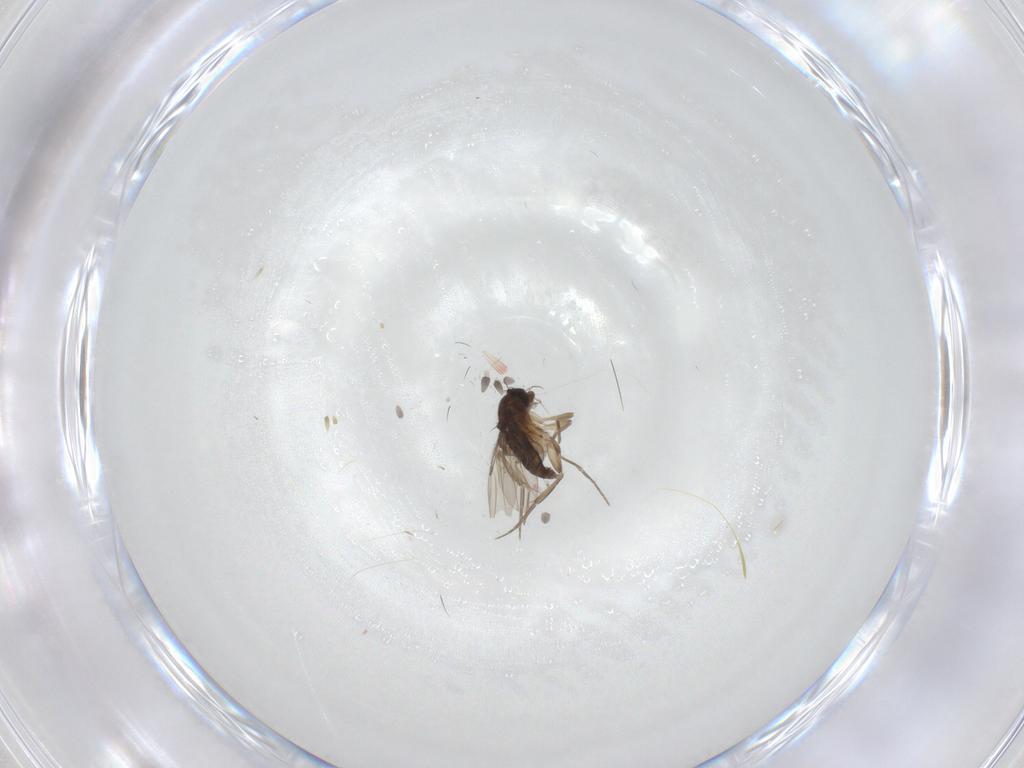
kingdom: Animalia
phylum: Arthropoda
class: Insecta
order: Diptera
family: Phoridae
